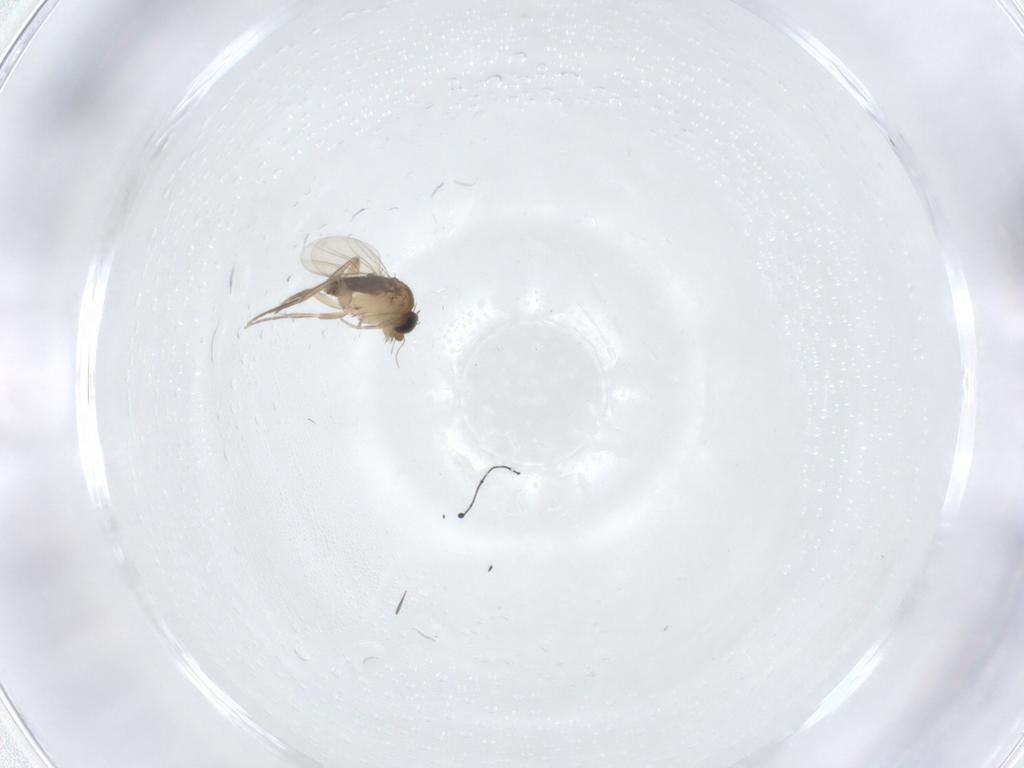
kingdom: Animalia
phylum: Arthropoda
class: Insecta
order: Diptera
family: Phoridae
